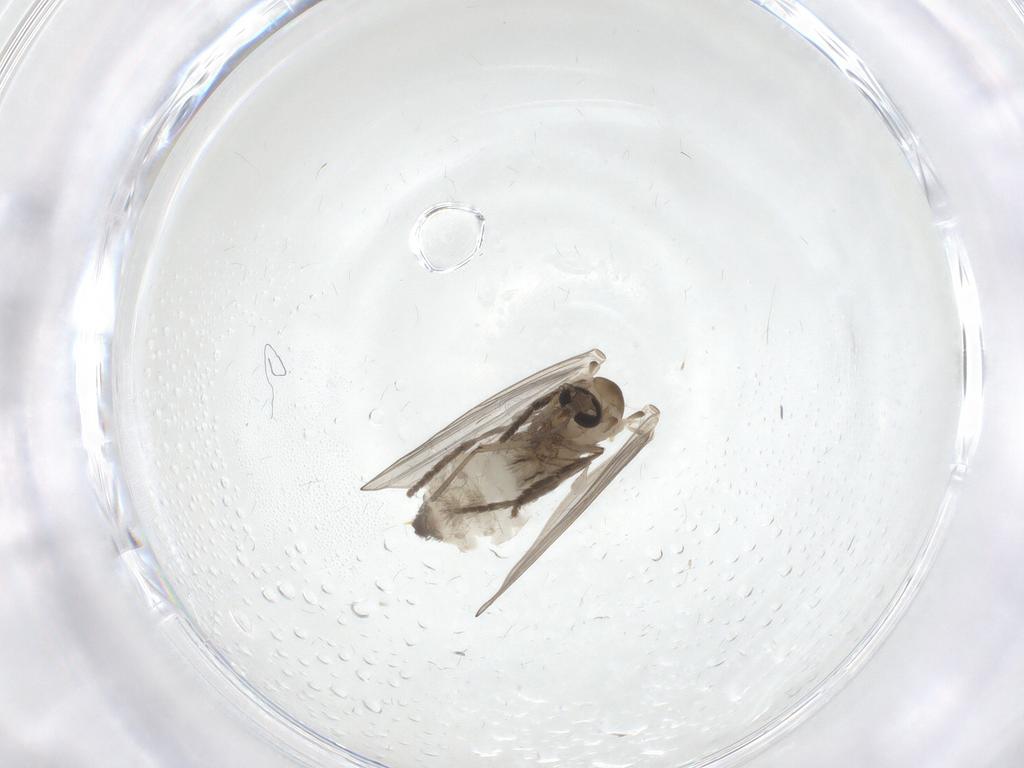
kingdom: Animalia
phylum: Arthropoda
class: Insecta
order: Diptera
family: Psychodidae
